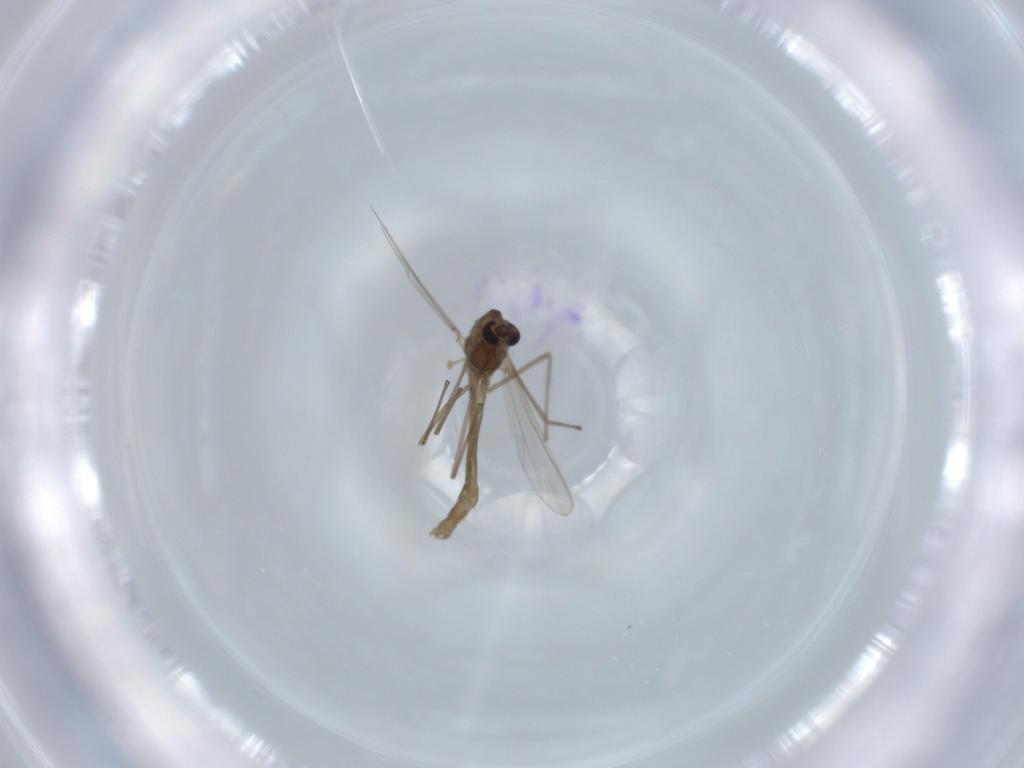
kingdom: Animalia
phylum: Arthropoda
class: Insecta
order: Diptera
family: Chironomidae
